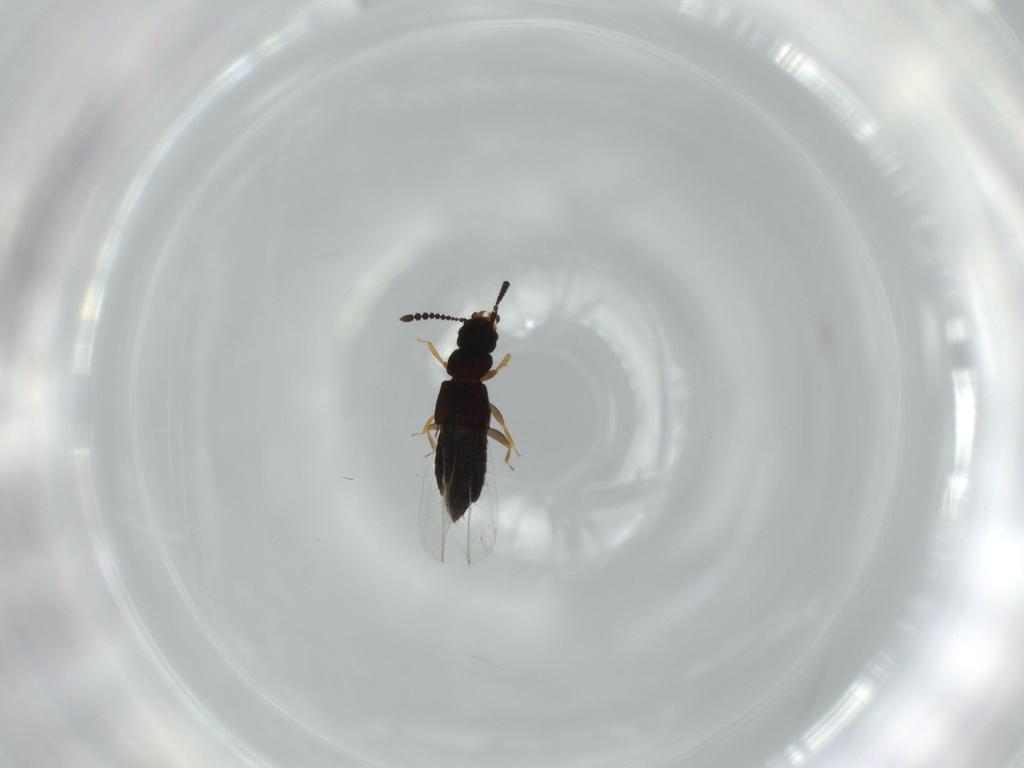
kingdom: Animalia
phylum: Arthropoda
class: Insecta
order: Coleoptera
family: Staphylinidae
